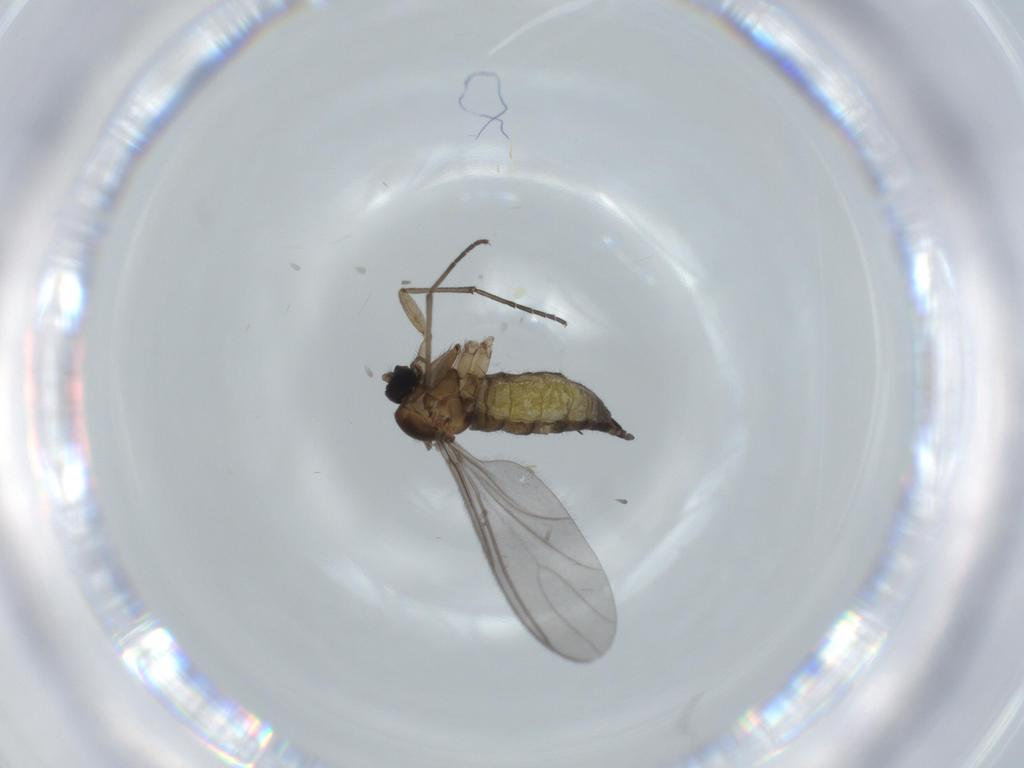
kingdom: Animalia
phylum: Arthropoda
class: Insecta
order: Diptera
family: Sciaridae
